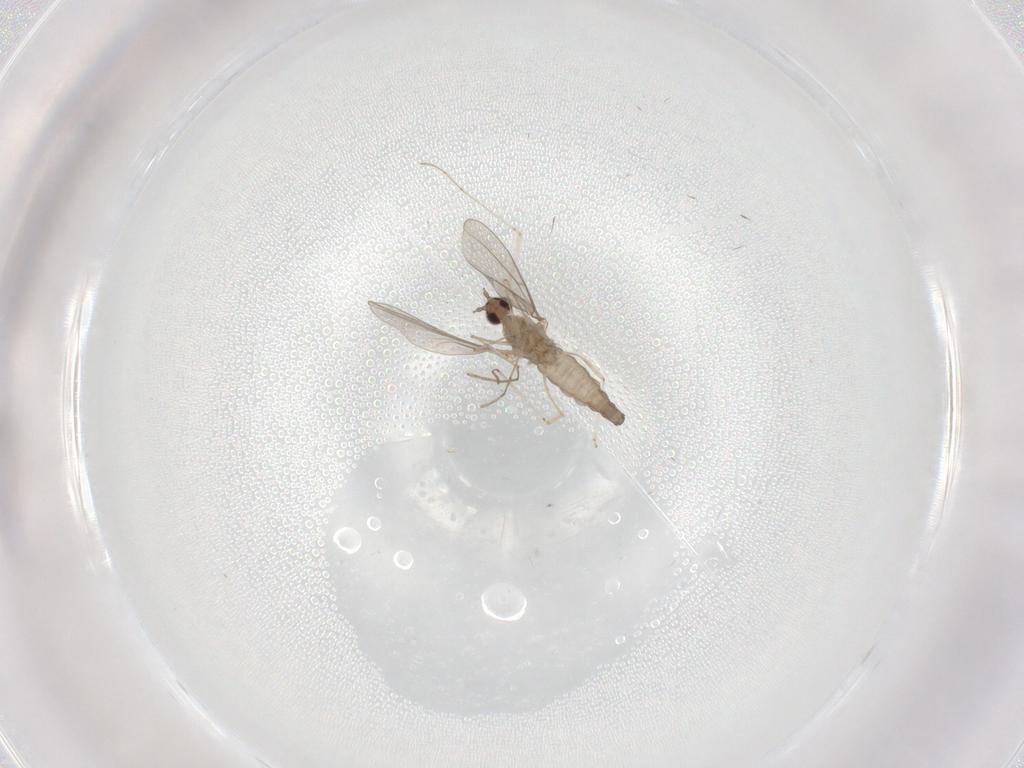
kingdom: Animalia
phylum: Arthropoda
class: Insecta
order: Diptera
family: Cecidomyiidae
